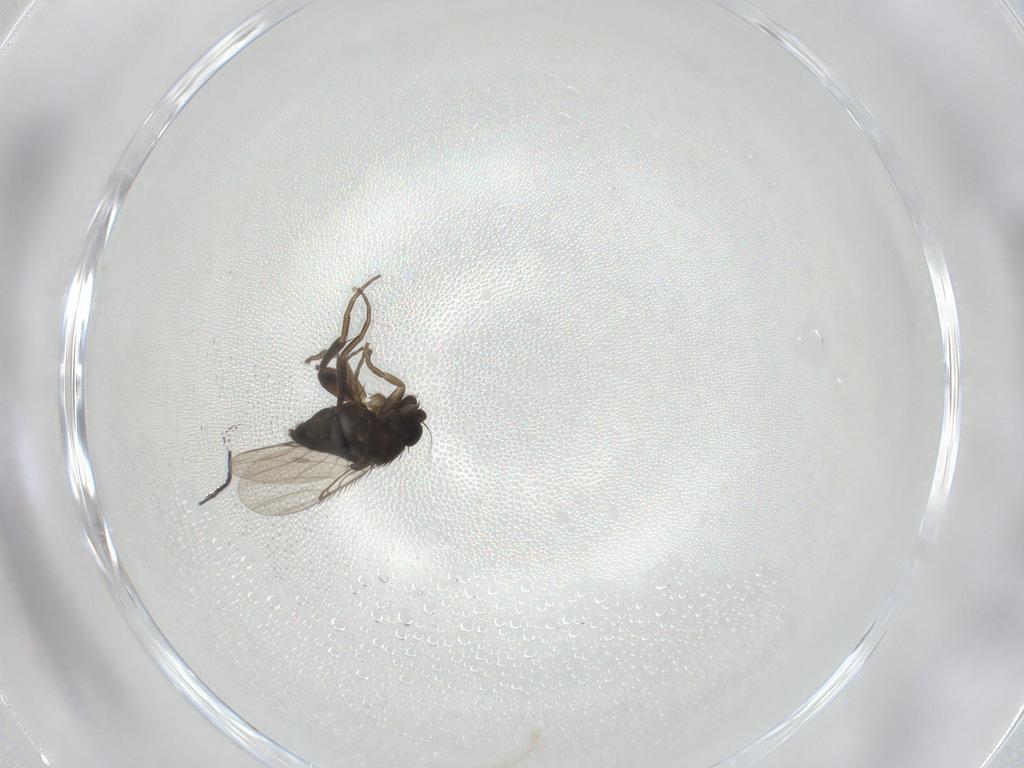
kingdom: Animalia
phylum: Arthropoda
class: Insecta
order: Diptera
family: Phoridae
